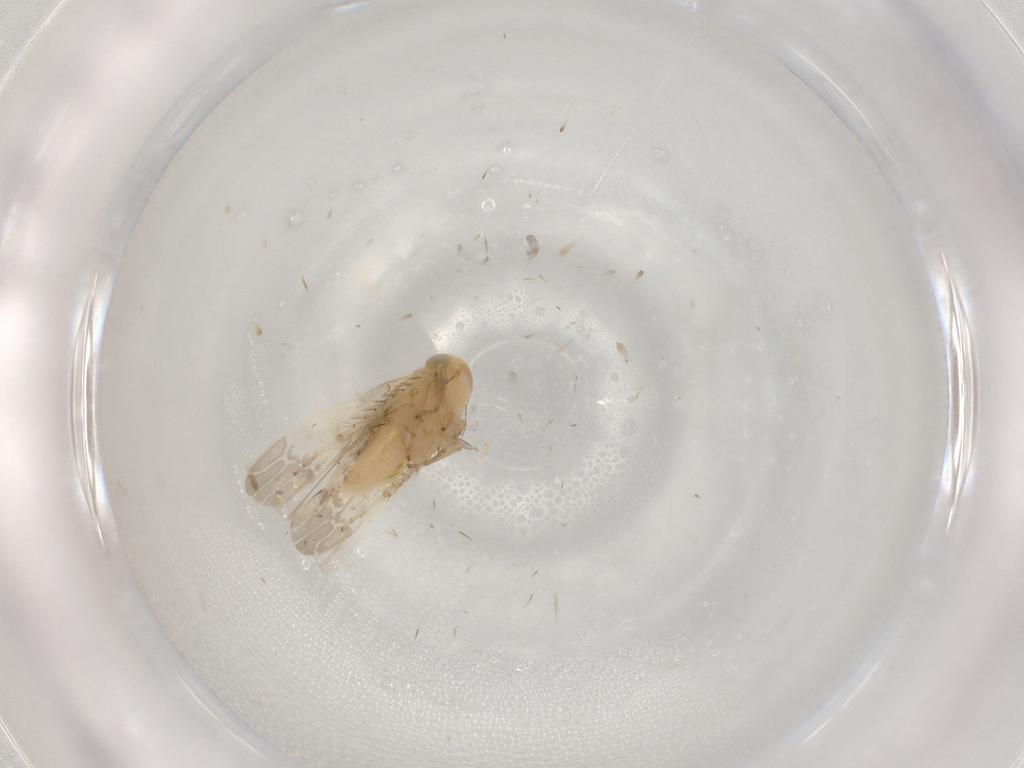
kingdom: Animalia
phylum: Arthropoda
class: Insecta
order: Hemiptera
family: Cicadellidae
